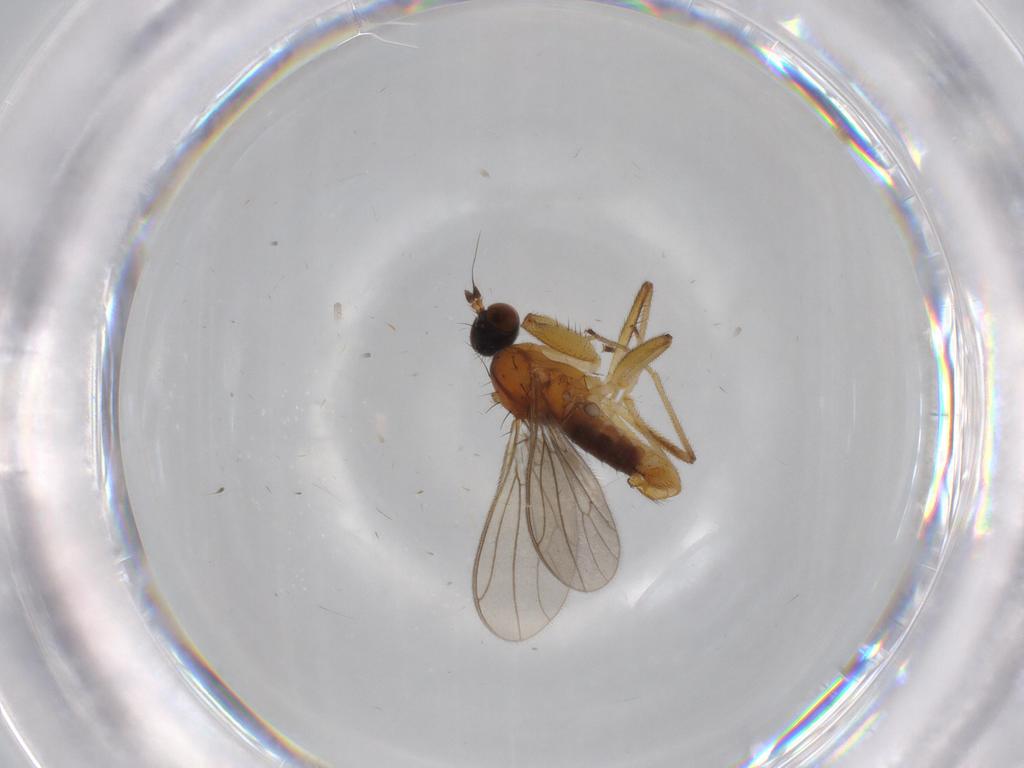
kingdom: Animalia
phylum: Arthropoda
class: Insecta
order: Diptera
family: Empididae
